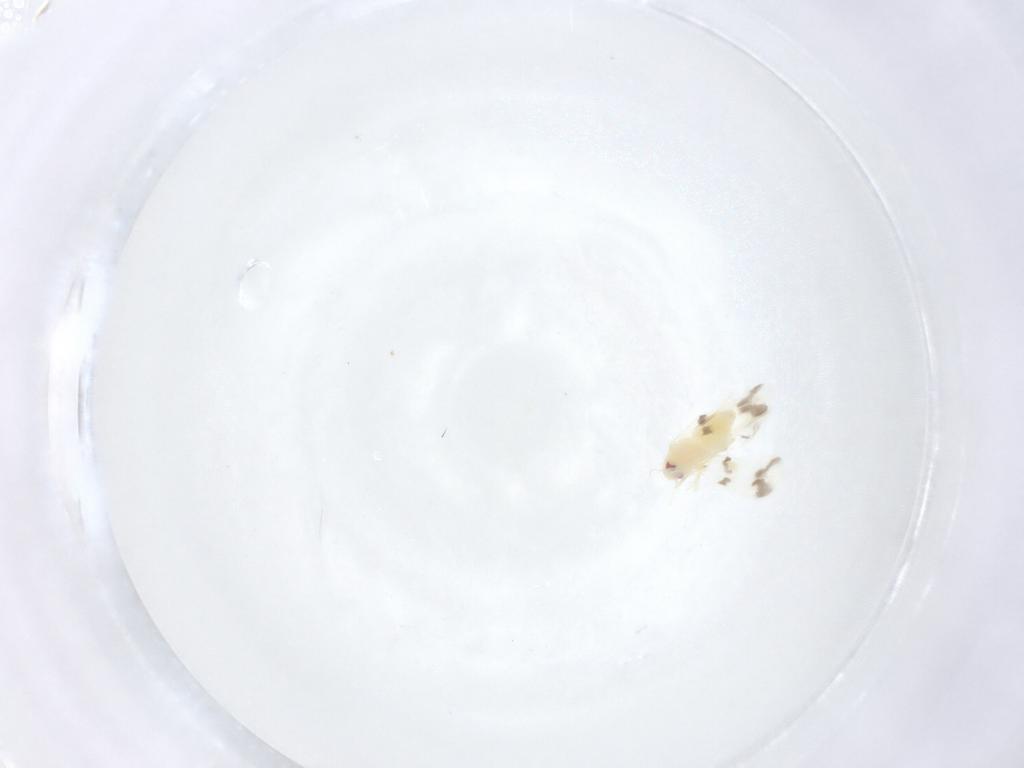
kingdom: Animalia
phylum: Arthropoda
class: Insecta
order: Hemiptera
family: Aleyrodidae
